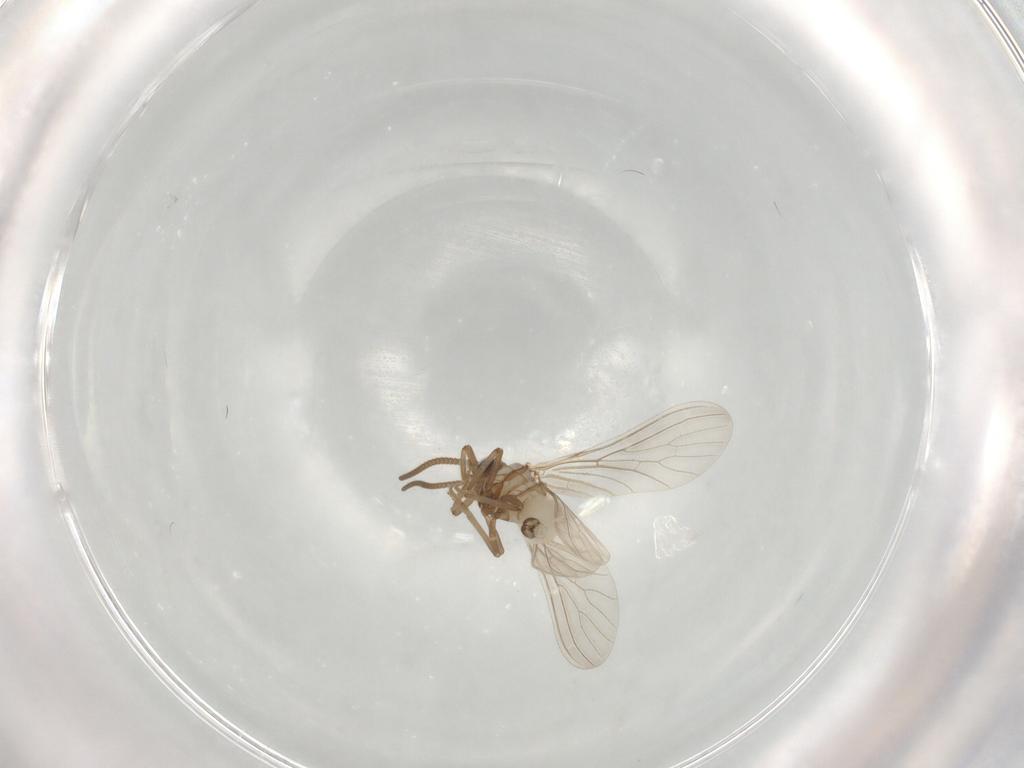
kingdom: Animalia
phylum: Arthropoda
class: Insecta
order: Neuroptera
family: Coniopterygidae
